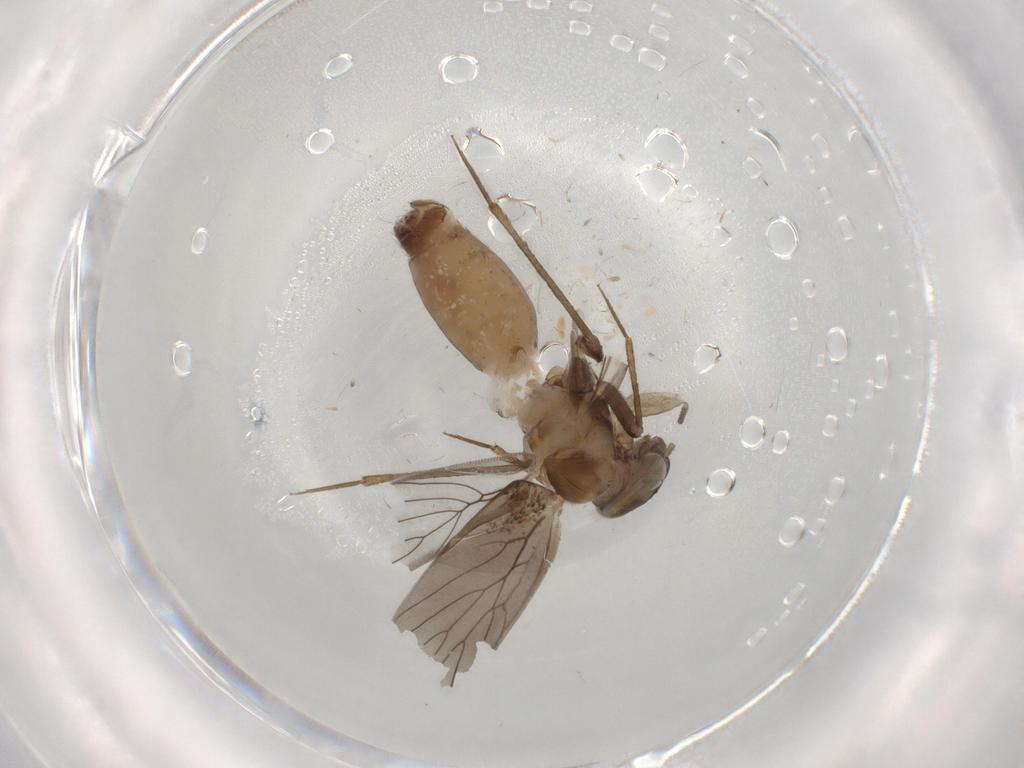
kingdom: Animalia
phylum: Arthropoda
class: Insecta
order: Psocodea
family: Lepidopsocidae
